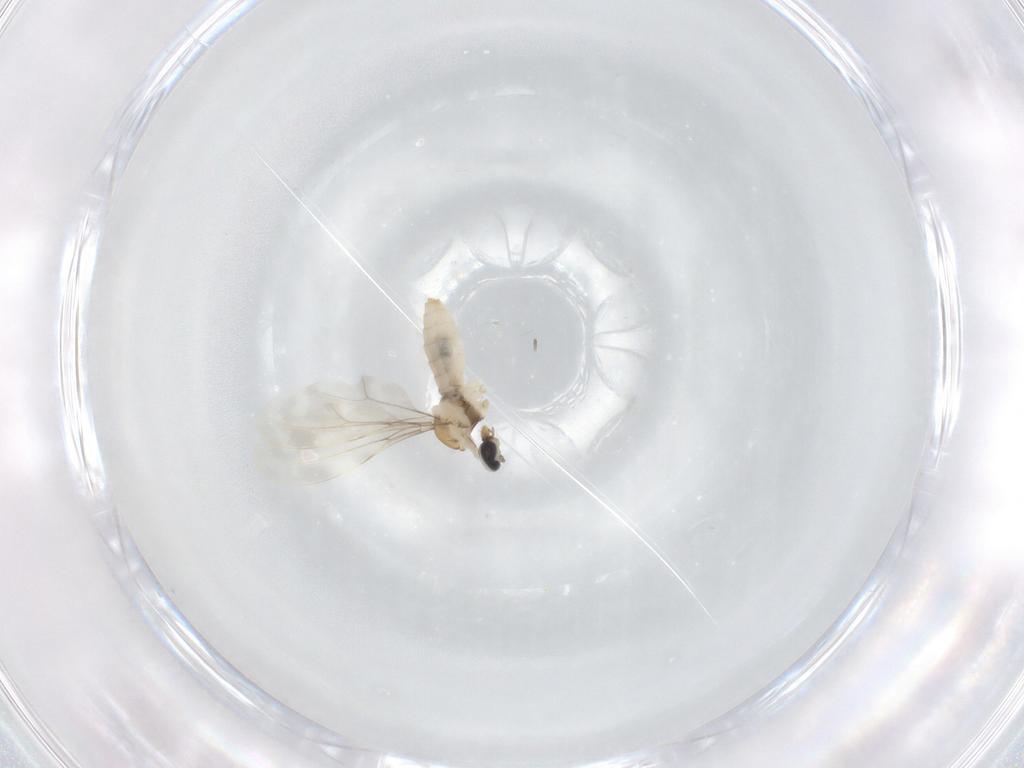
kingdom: Animalia
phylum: Arthropoda
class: Insecta
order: Diptera
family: Cecidomyiidae
